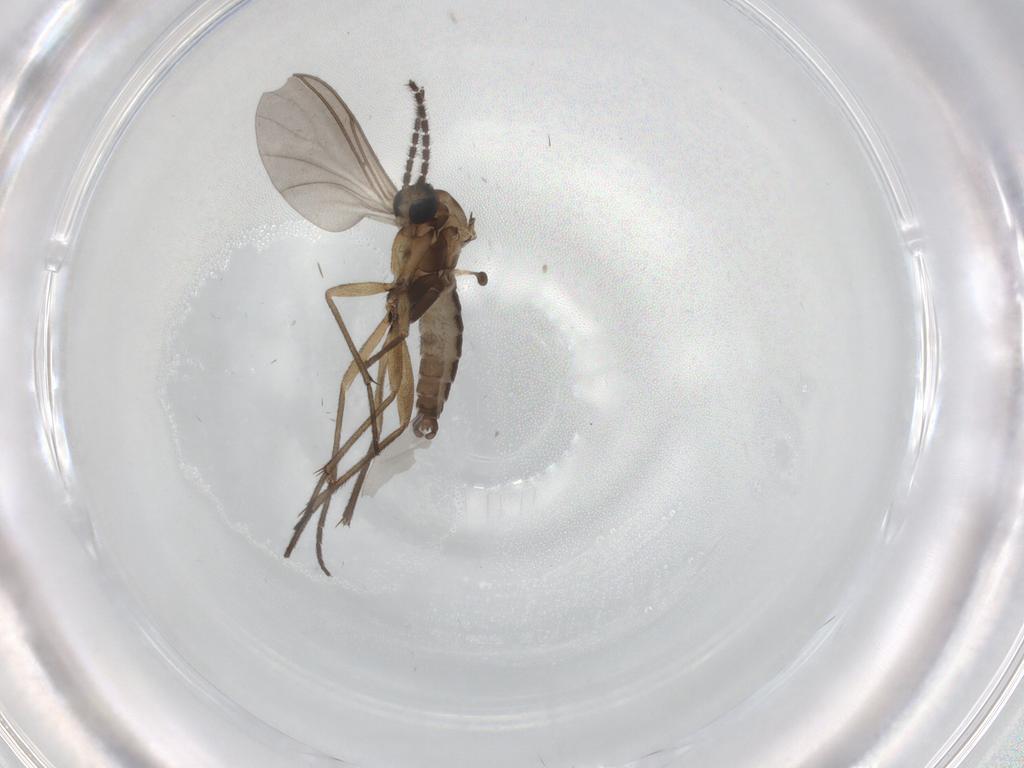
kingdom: Animalia
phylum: Arthropoda
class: Insecta
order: Diptera
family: Sciaridae
